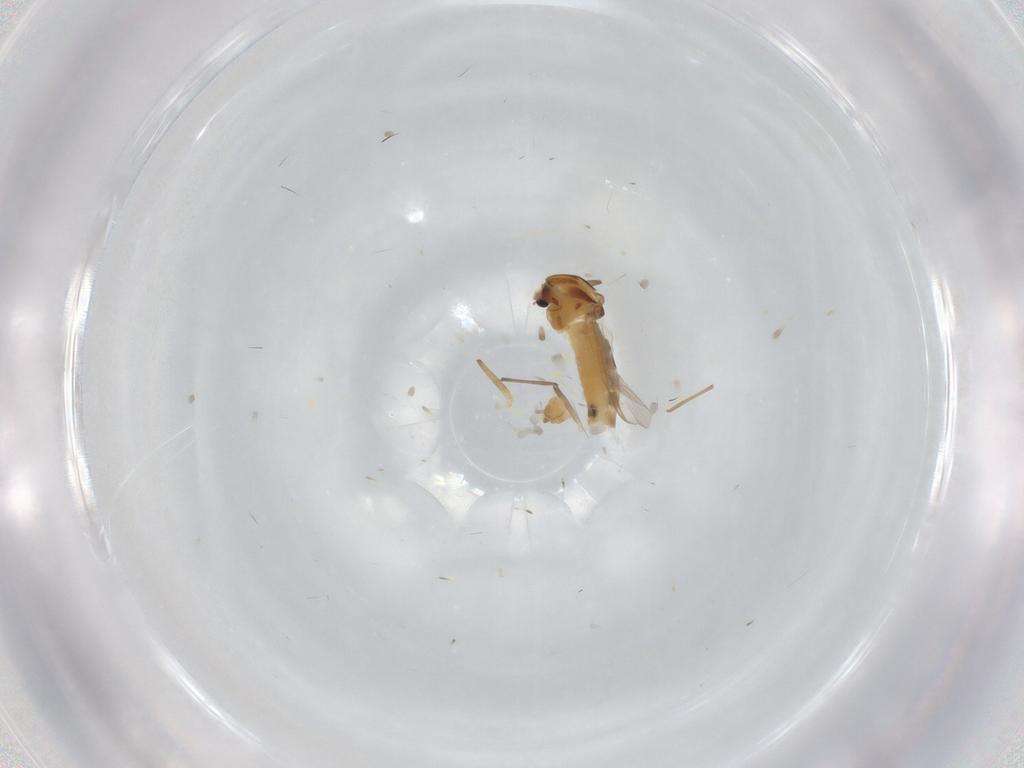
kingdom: Animalia
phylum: Arthropoda
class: Insecta
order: Diptera
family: Chironomidae
